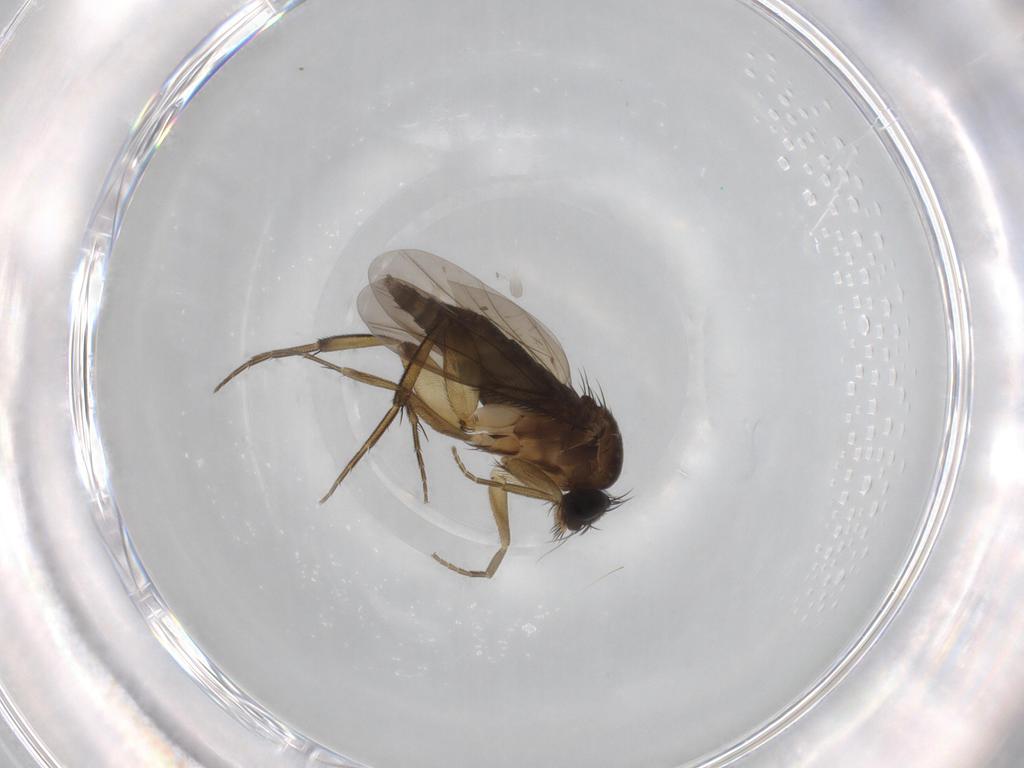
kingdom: Animalia
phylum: Arthropoda
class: Insecta
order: Diptera
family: Phoridae
